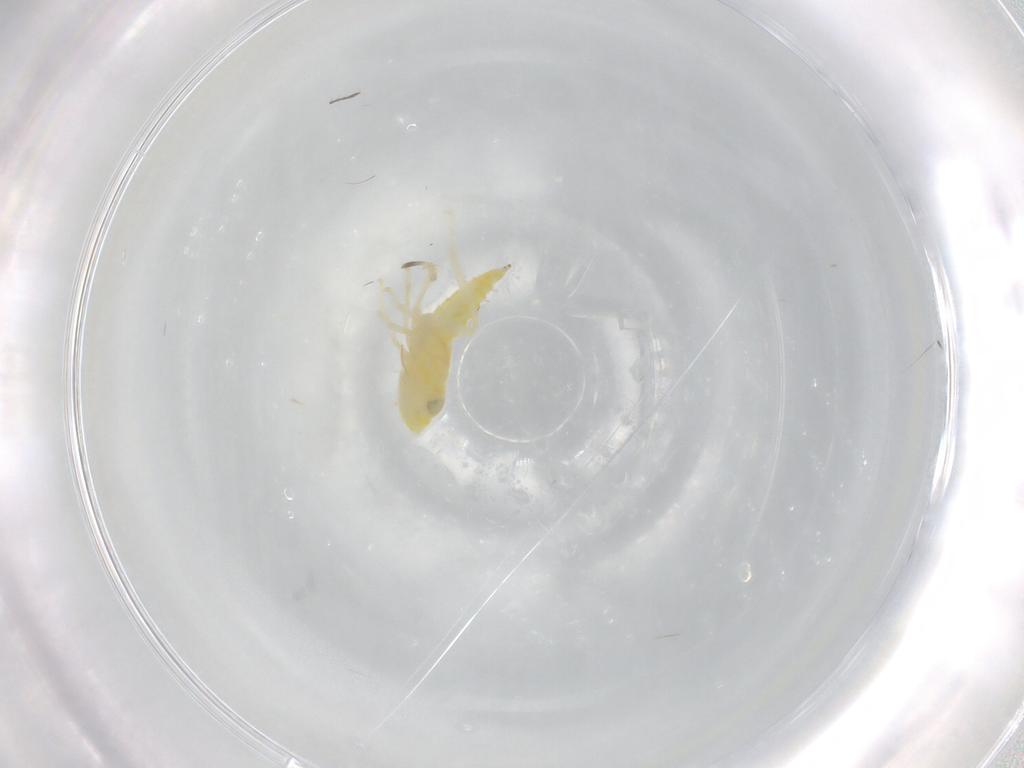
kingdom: Animalia
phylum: Arthropoda
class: Insecta
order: Hemiptera
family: Cicadellidae
